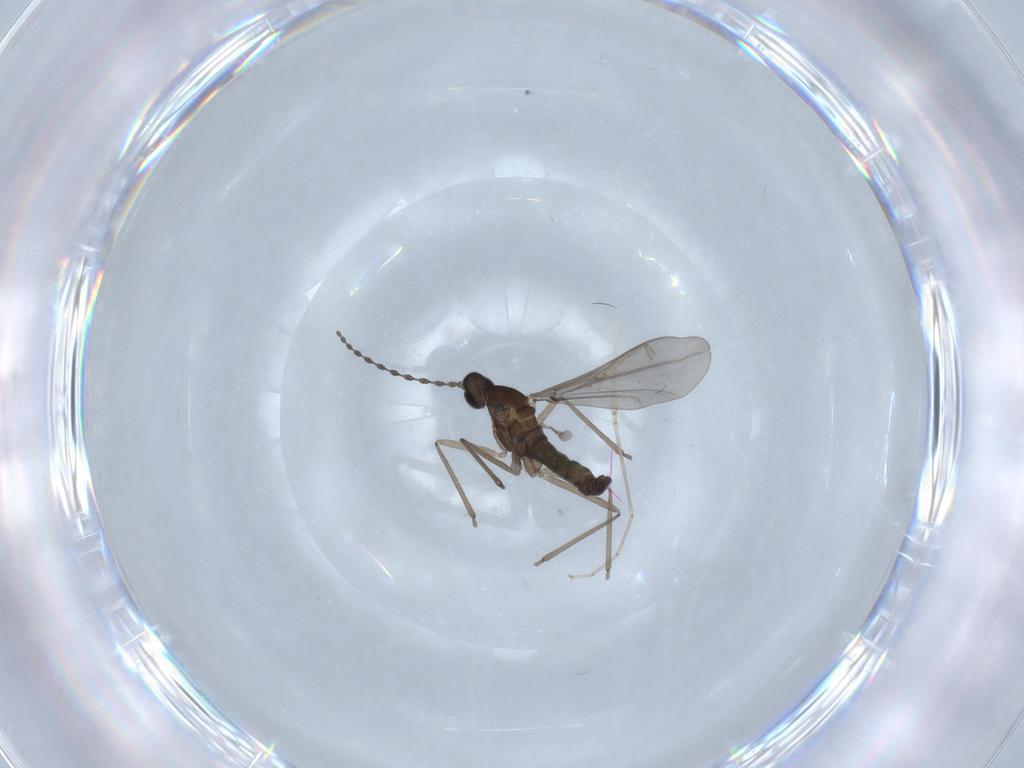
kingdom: Animalia
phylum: Arthropoda
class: Insecta
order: Diptera
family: Cecidomyiidae
